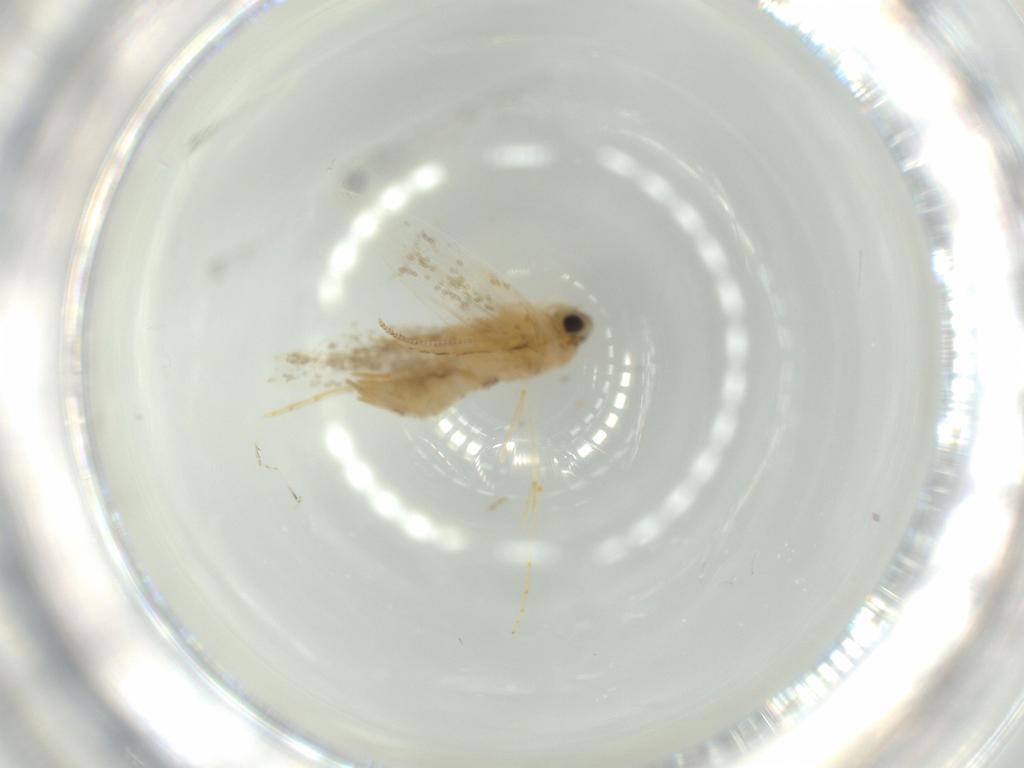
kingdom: Animalia
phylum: Arthropoda
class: Insecta
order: Lepidoptera
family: Tineidae
